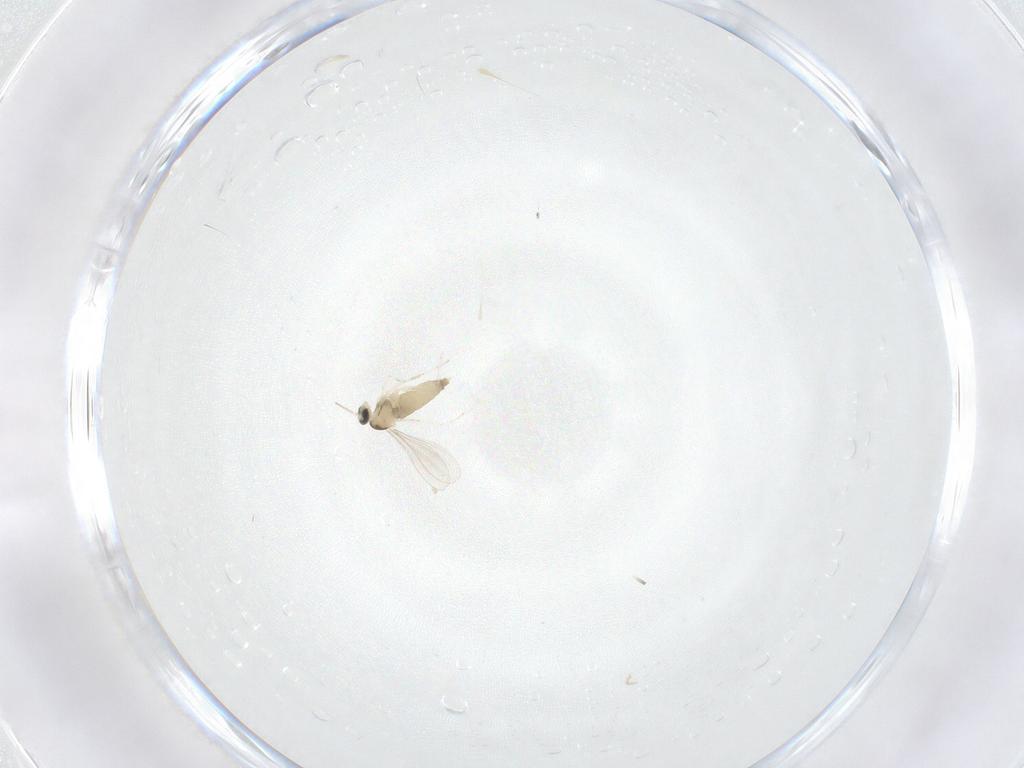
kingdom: Animalia
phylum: Arthropoda
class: Insecta
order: Diptera
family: Cecidomyiidae
